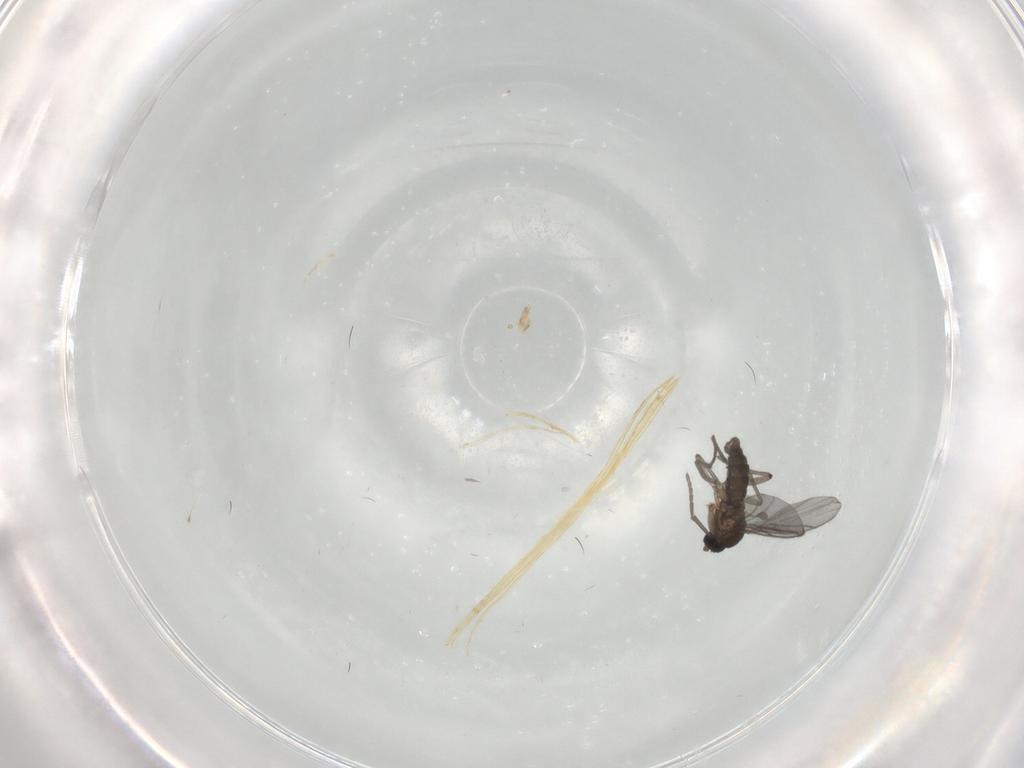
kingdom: Animalia
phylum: Arthropoda
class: Insecta
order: Diptera
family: Sciaridae
